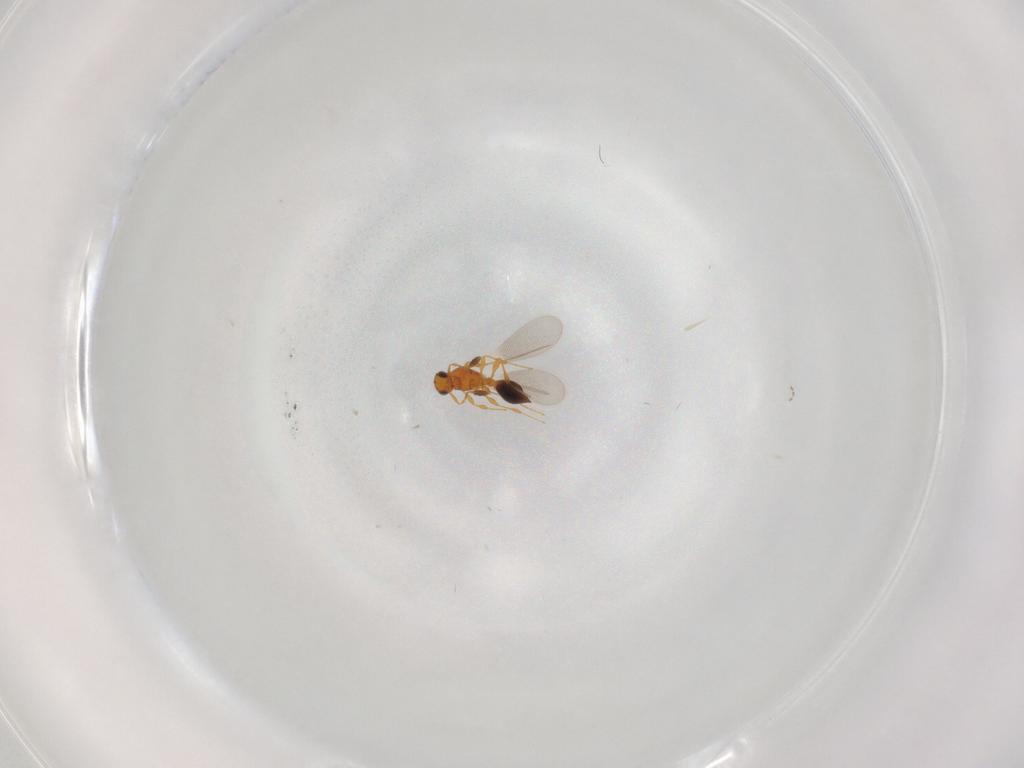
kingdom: Animalia
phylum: Arthropoda
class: Insecta
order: Hymenoptera
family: Platygastridae
